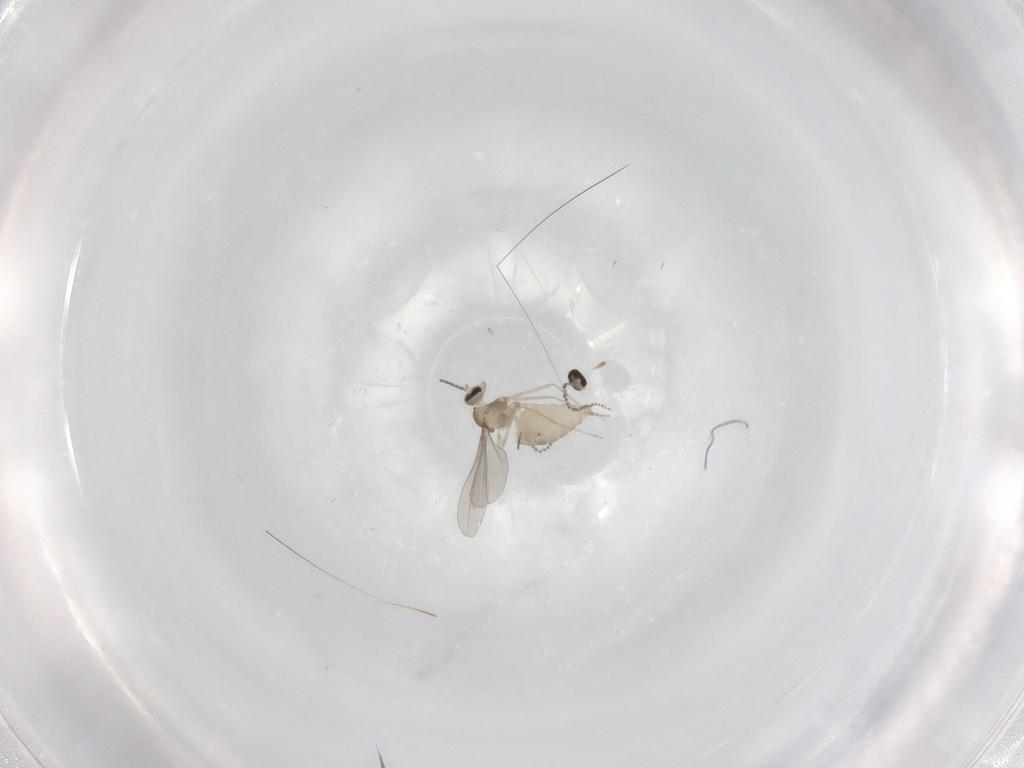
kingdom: Animalia
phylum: Arthropoda
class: Insecta
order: Diptera
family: Cecidomyiidae
